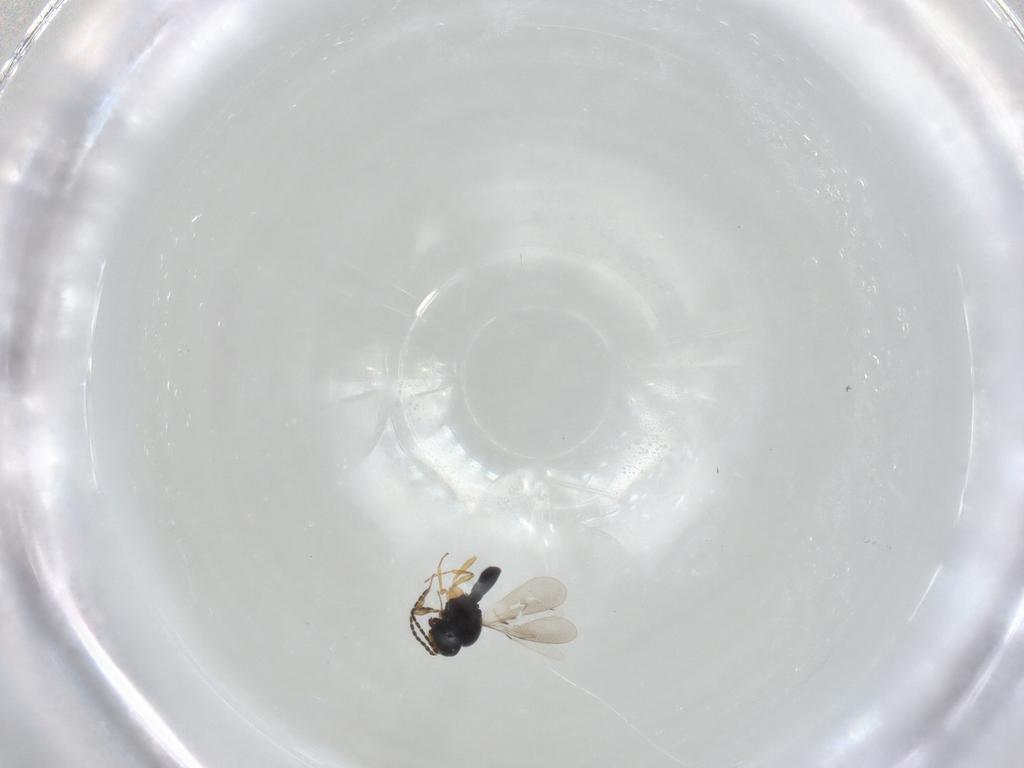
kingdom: Animalia
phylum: Arthropoda
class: Insecta
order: Hymenoptera
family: Scelionidae
